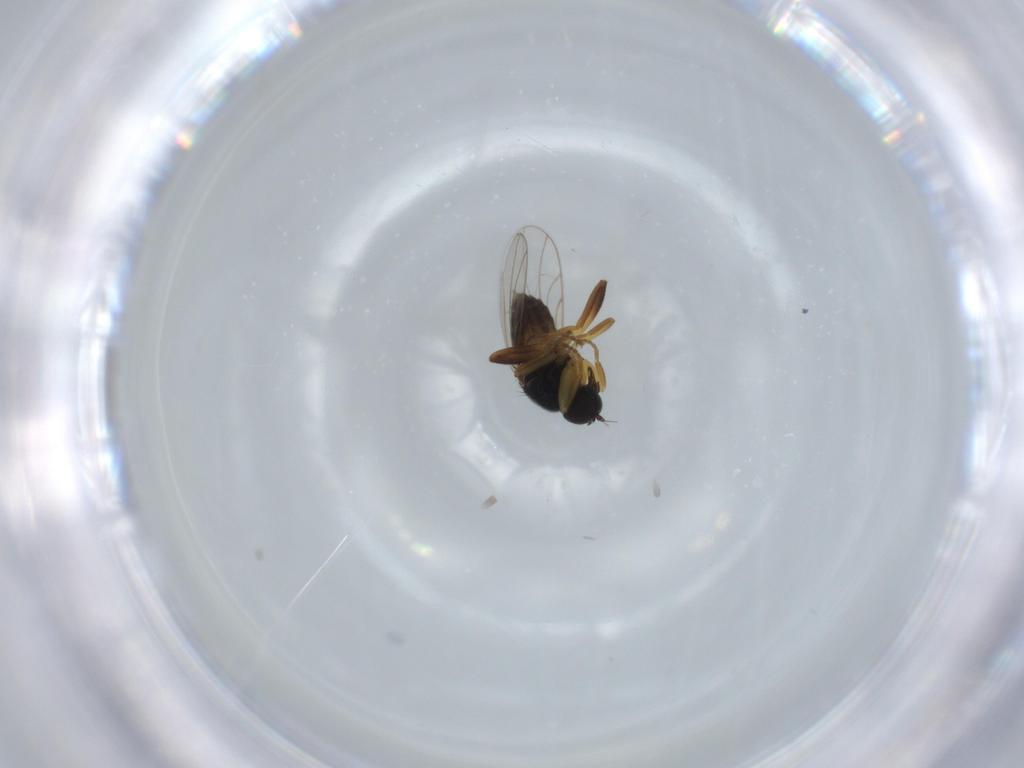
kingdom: Animalia
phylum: Arthropoda
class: Insecta
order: Diptera
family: Hybotidae
